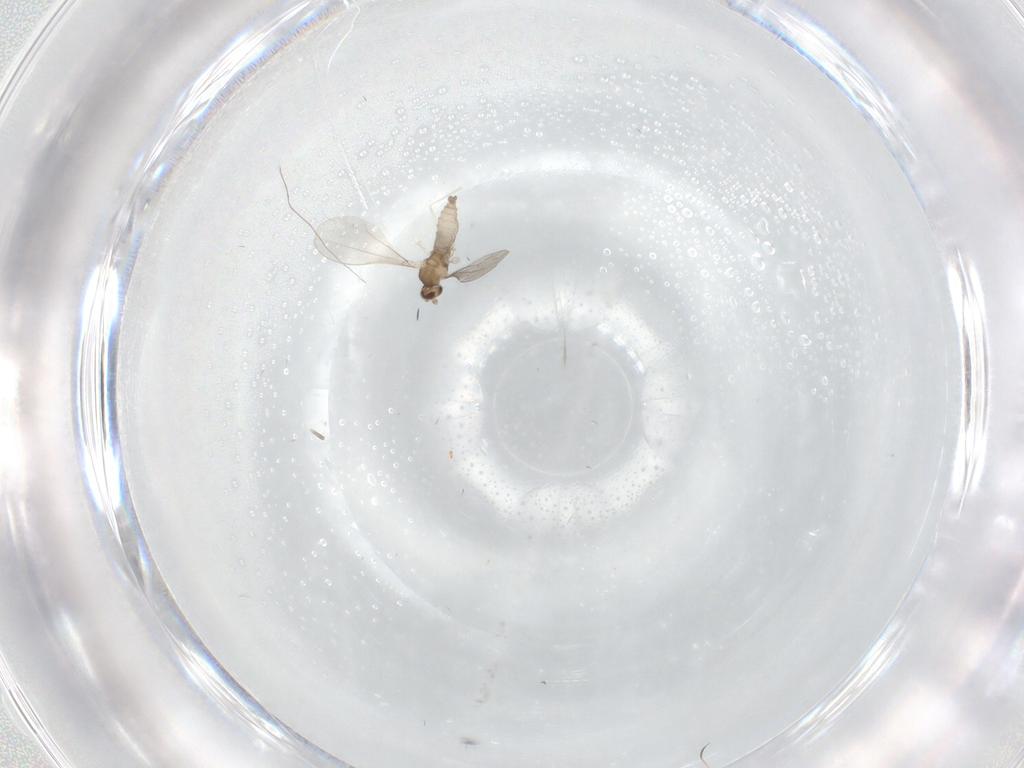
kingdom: Animalia
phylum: Arthropoda
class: Insecta
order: Diptera
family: Cecidomyiidae
